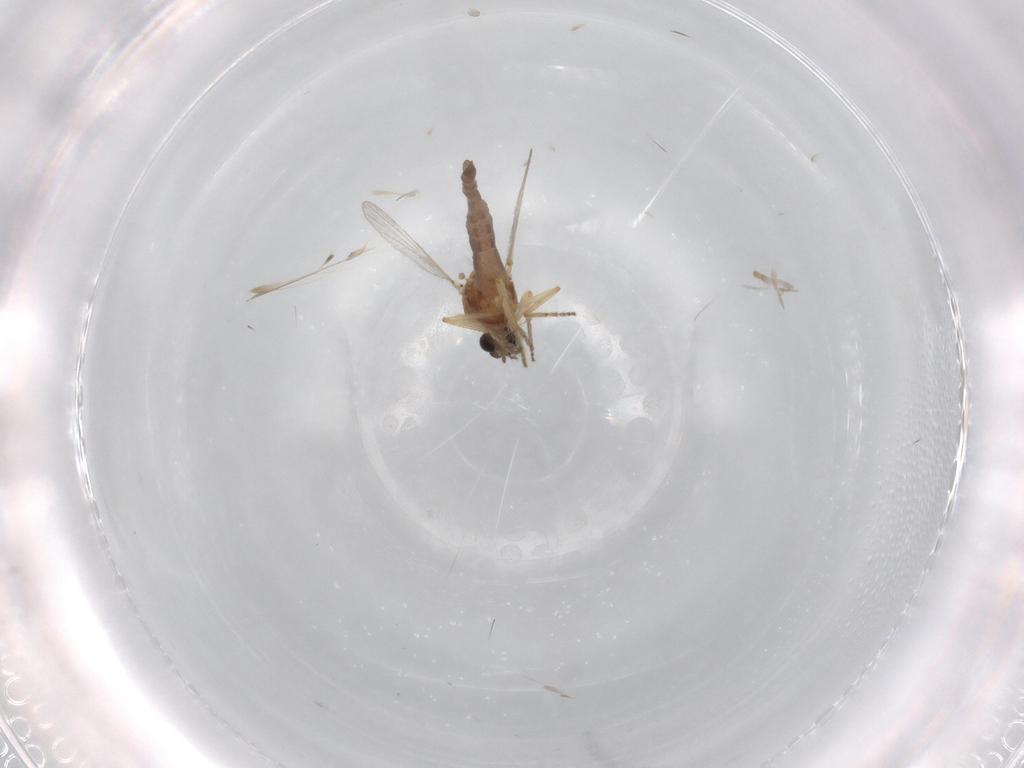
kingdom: Animalia
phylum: Arthropoda
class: Insecta
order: Diptera
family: Ceratopogonidae
